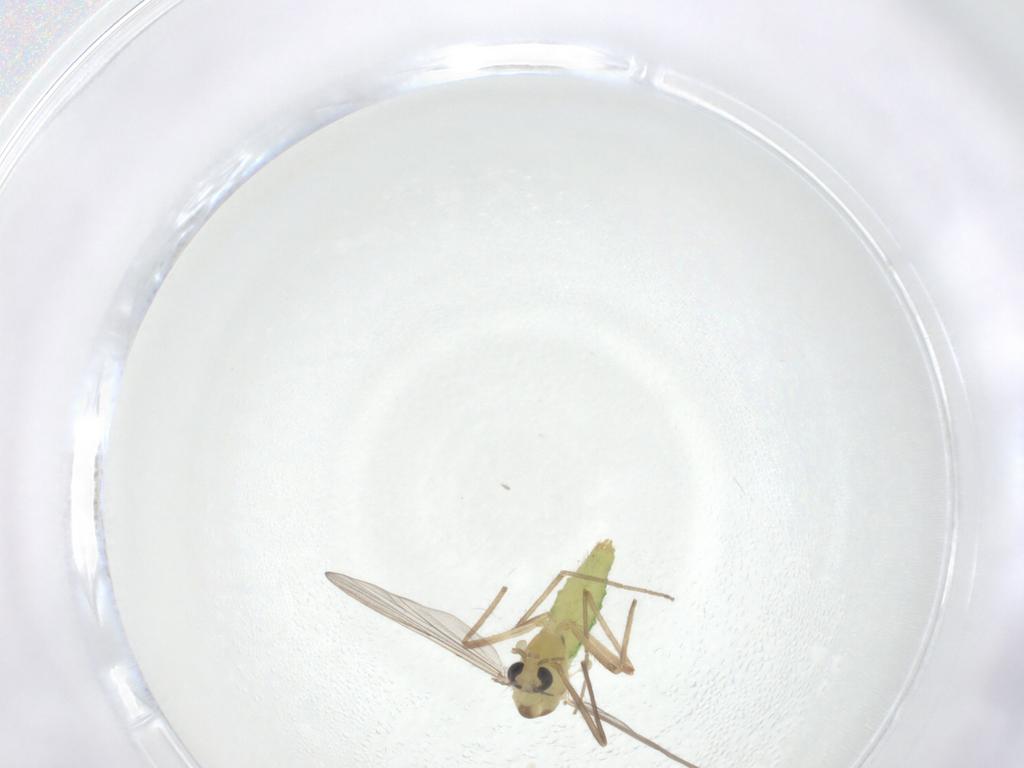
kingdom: Animalia
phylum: Arthropoda
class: Insecta
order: Diptera
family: Chironomidae
